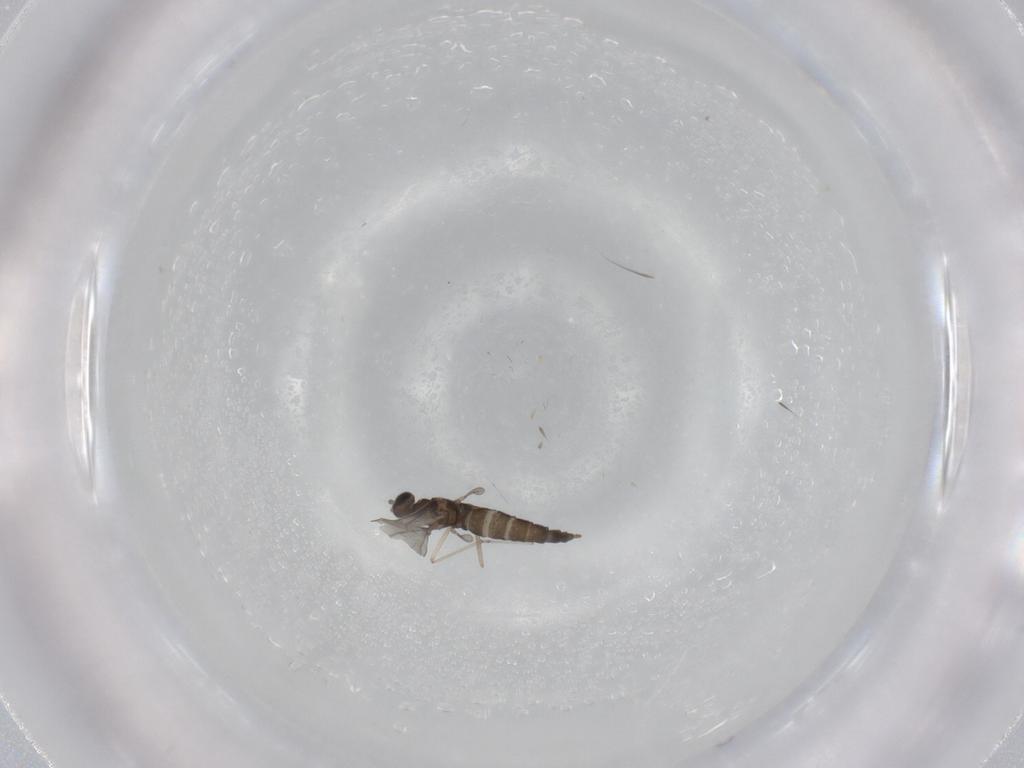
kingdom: Animalia
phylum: Arthropoda
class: Insecta
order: Diptera
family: Cecidomyiidae
